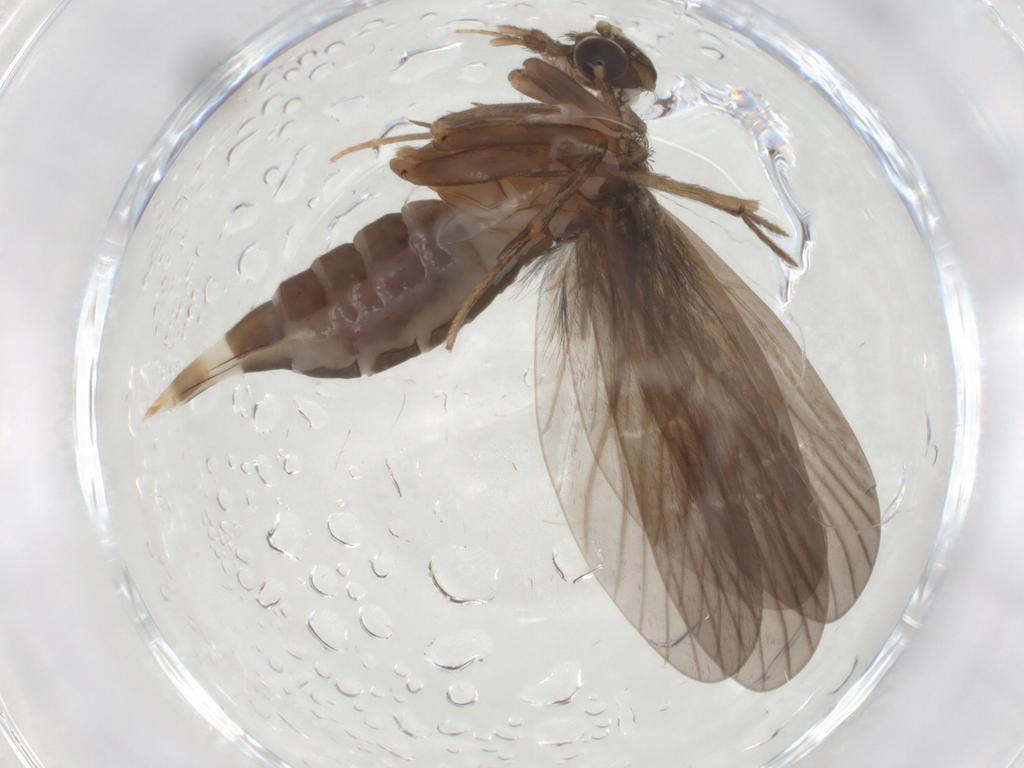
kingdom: Animalia
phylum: Arthropoda
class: Insecta
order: Trichoptera
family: Philopotamidae
